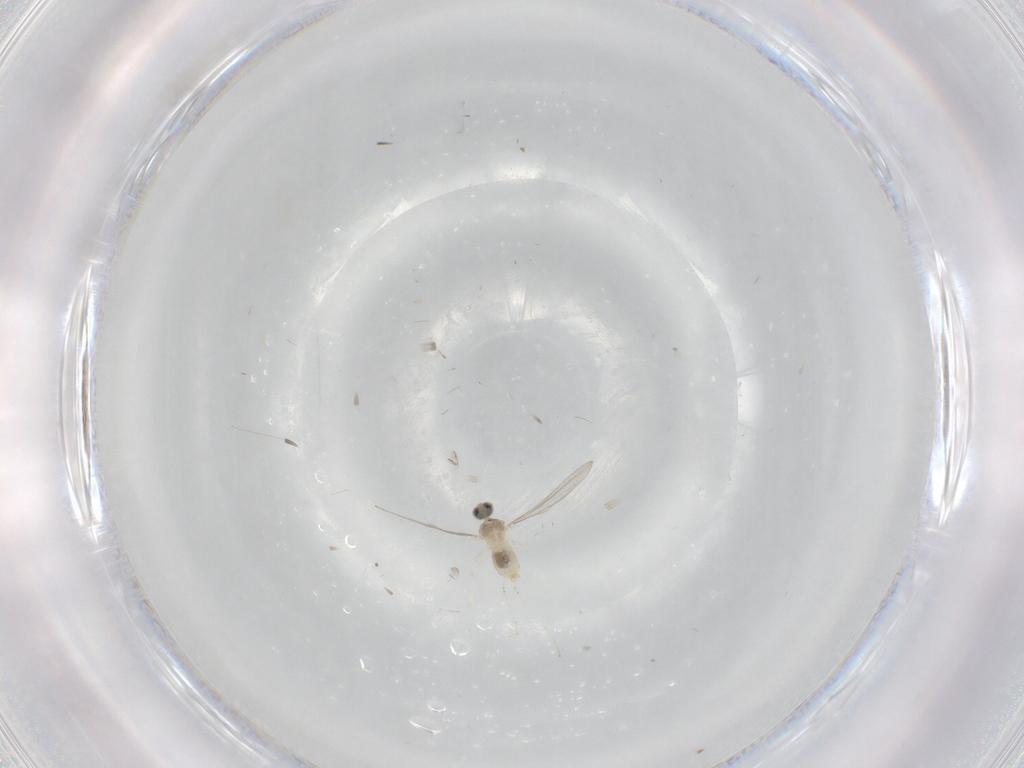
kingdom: Animalia
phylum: Arthropoda
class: Insecta
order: Diptera
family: Cecidomyiidae
